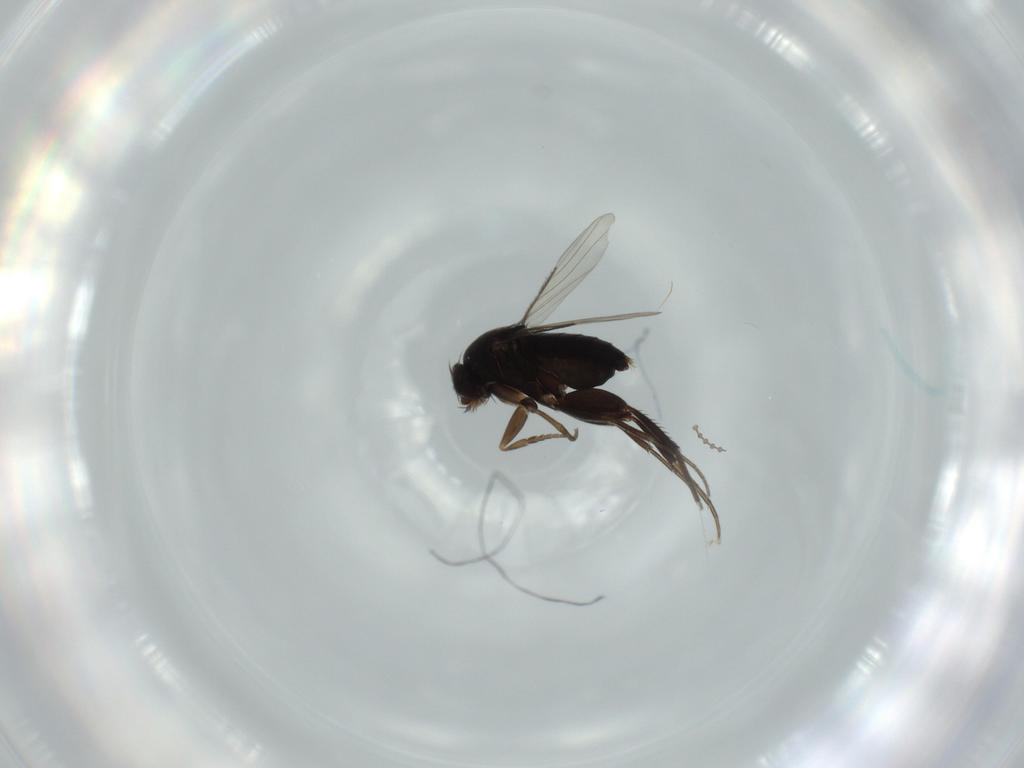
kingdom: Animalia
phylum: Arthropoda
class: Insecta
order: Diptera
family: Phoridae
